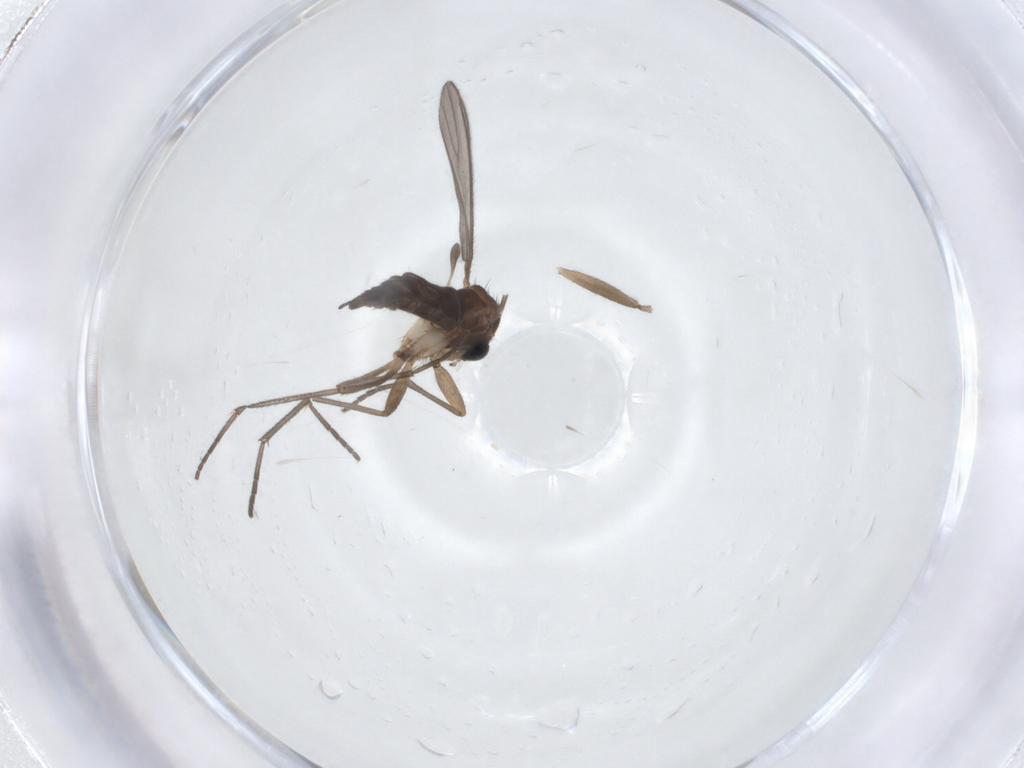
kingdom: Animalia
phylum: Arthropoda
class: Insecta
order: Diptera
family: Sciaridae
